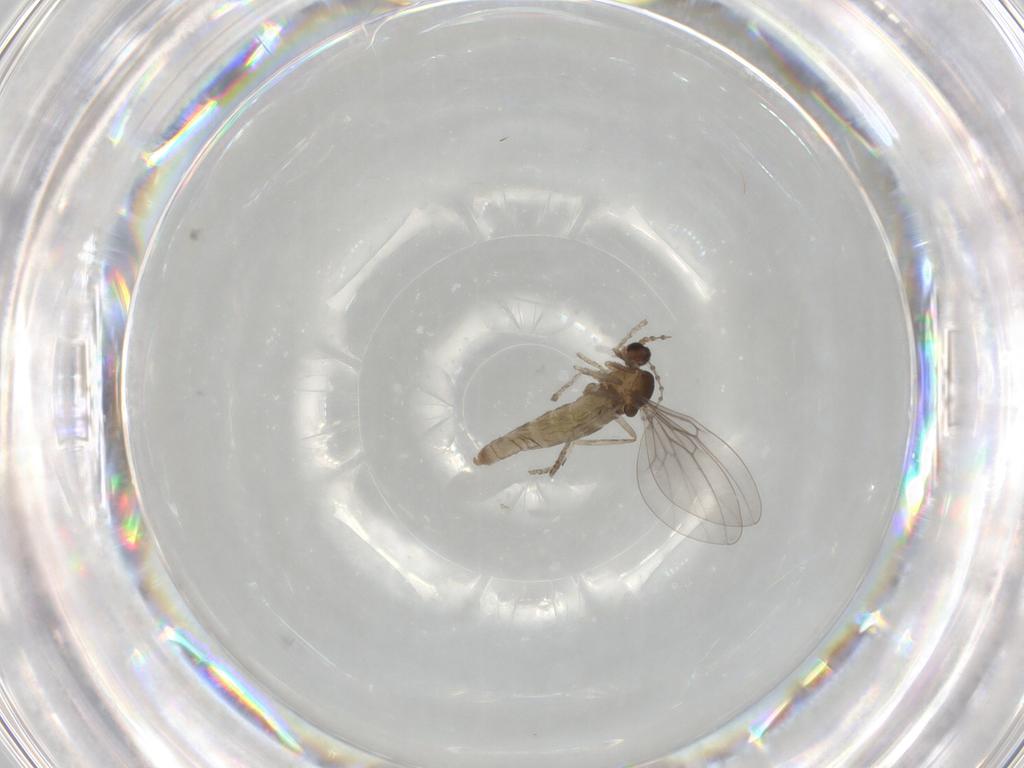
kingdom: Animalia
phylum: Arthropoda
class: Insecta
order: Diptera
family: Cecidomyiidae
